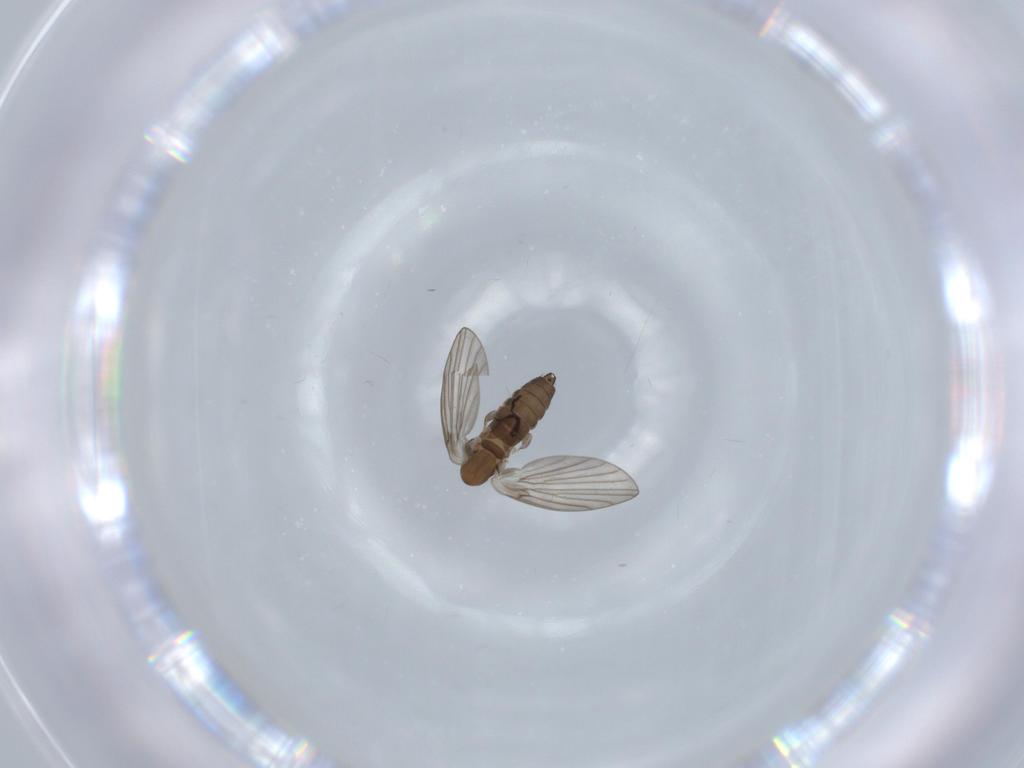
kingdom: Animalia
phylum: Arthropoda
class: Insecta
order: Diptera
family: Psychodidae
